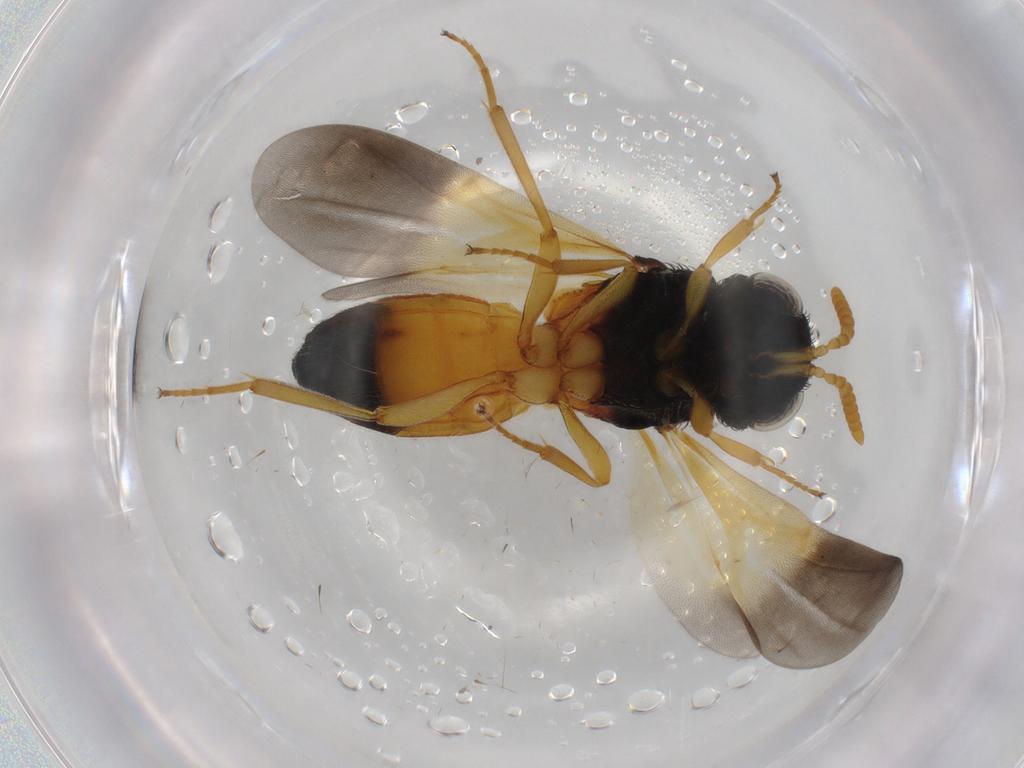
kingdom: Animalia
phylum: Arthropoda
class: Insecta
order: Hymenoptera
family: Scelionidae
